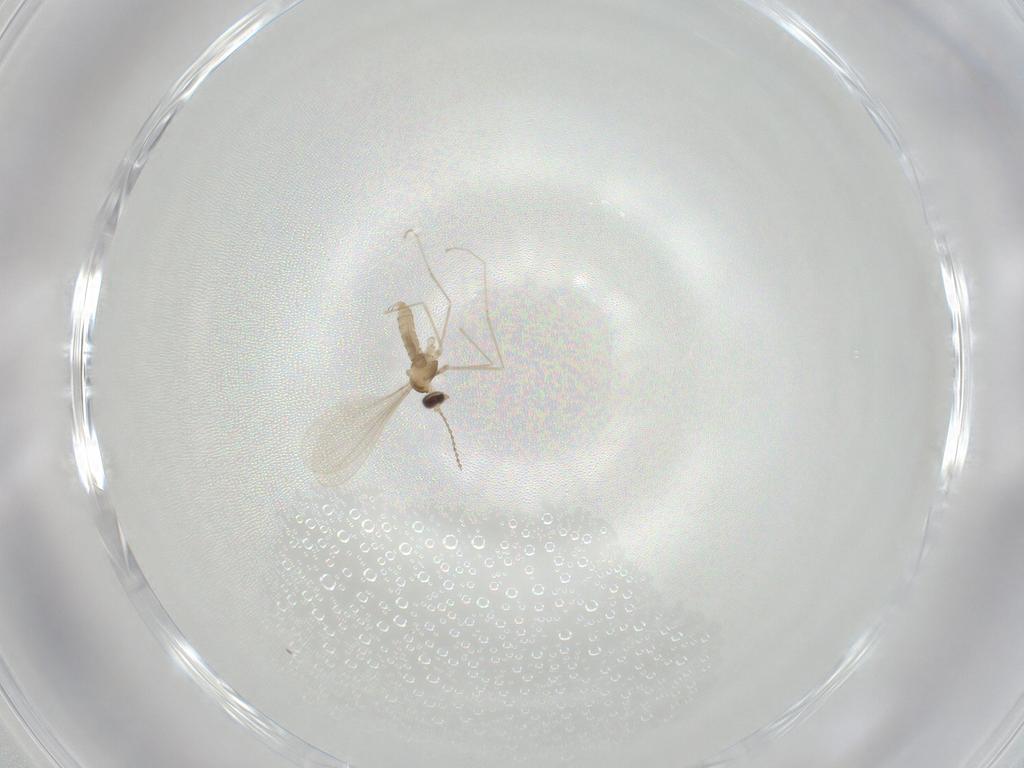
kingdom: Animalia
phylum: Arthropoda
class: Insecta
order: Diptera
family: Cecidomyiidae
